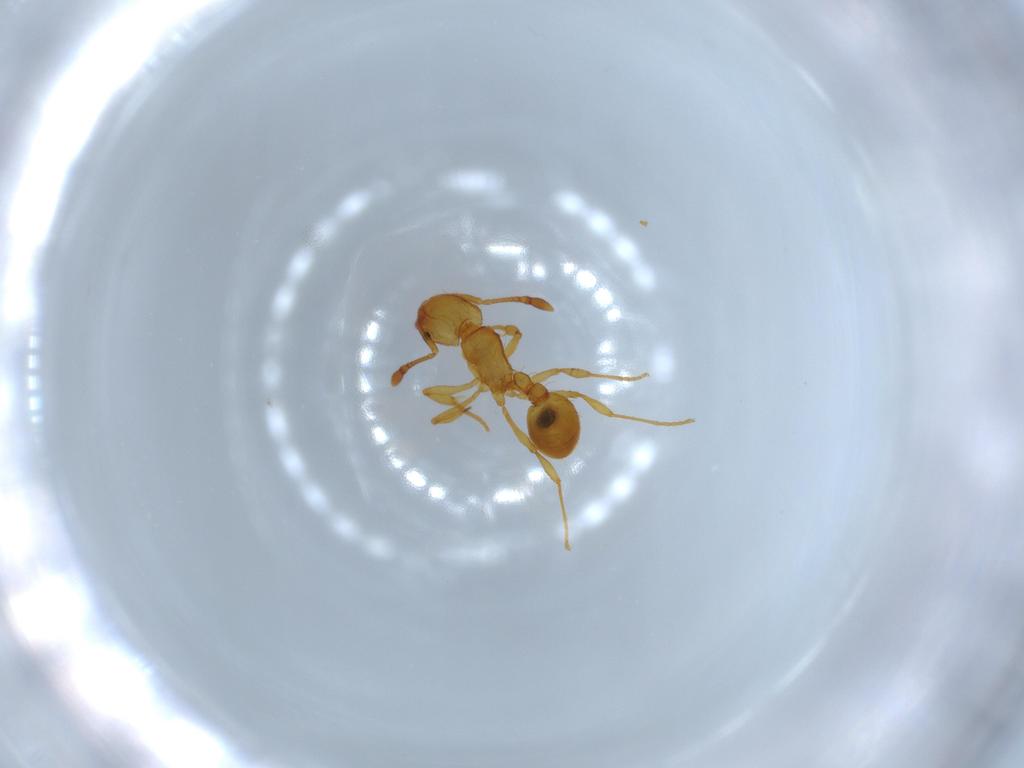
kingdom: Animalia
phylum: Arthropoda
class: Insecta
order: Hymenoptera
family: Formicidae
